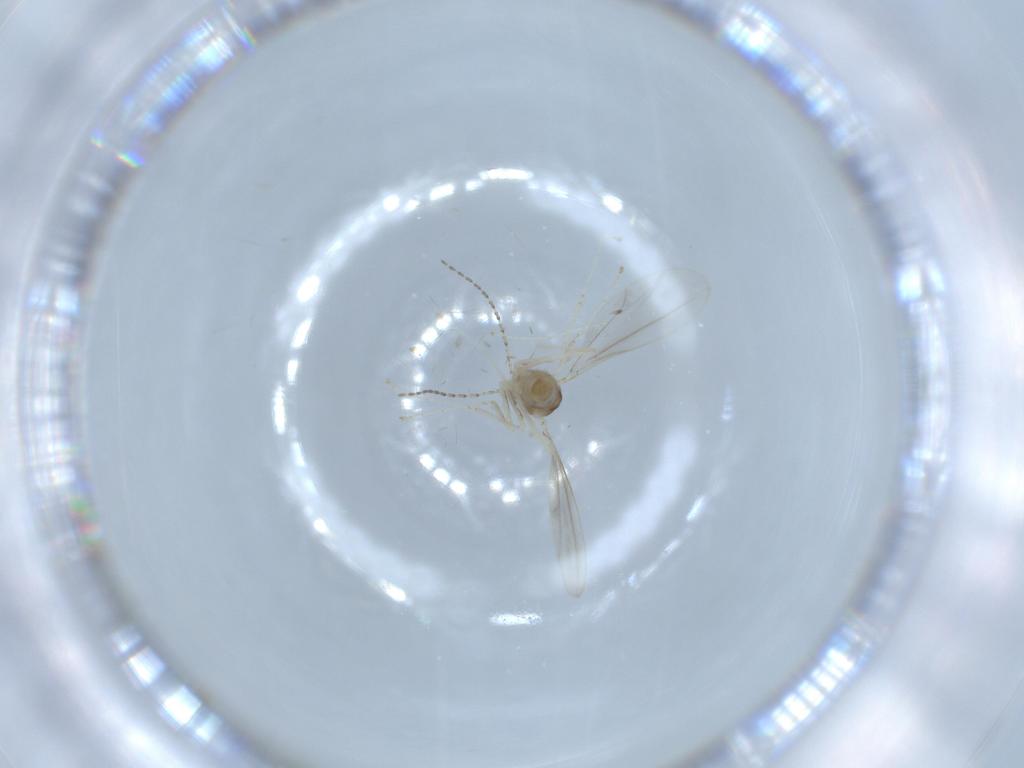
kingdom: Animalia
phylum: Arthropoda
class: Insecta
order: Diptera
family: Cecidomyiidae
